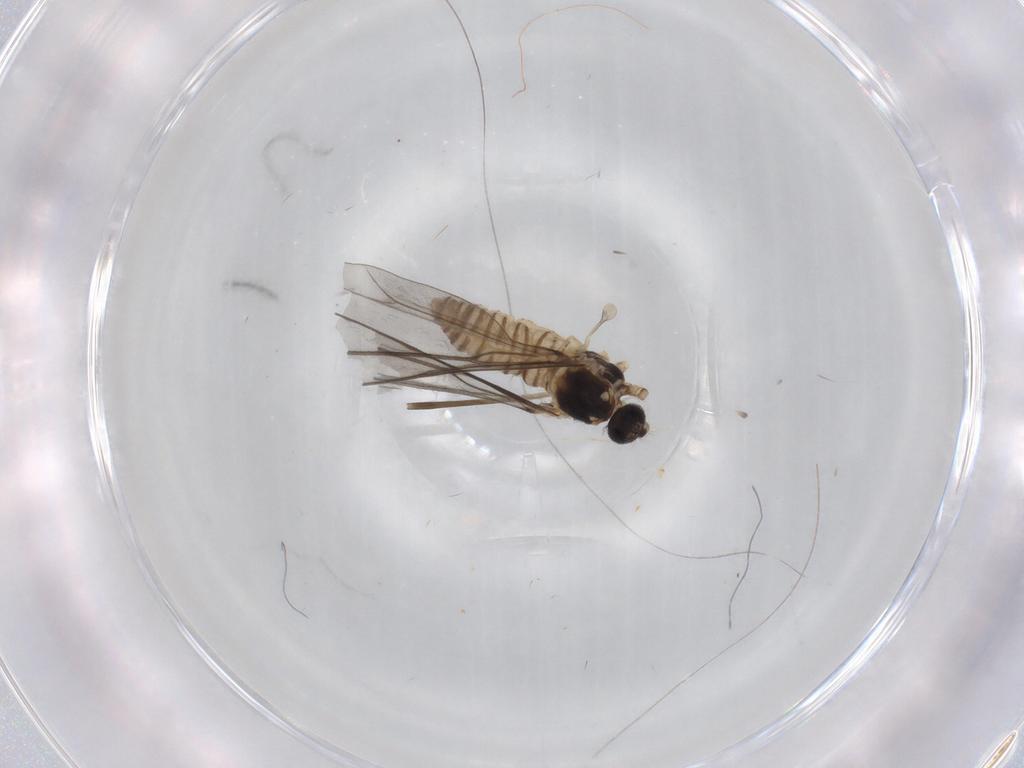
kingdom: Animalia
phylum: Arthropoda
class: Insecta
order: Diptera
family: Cecidomyiidae
